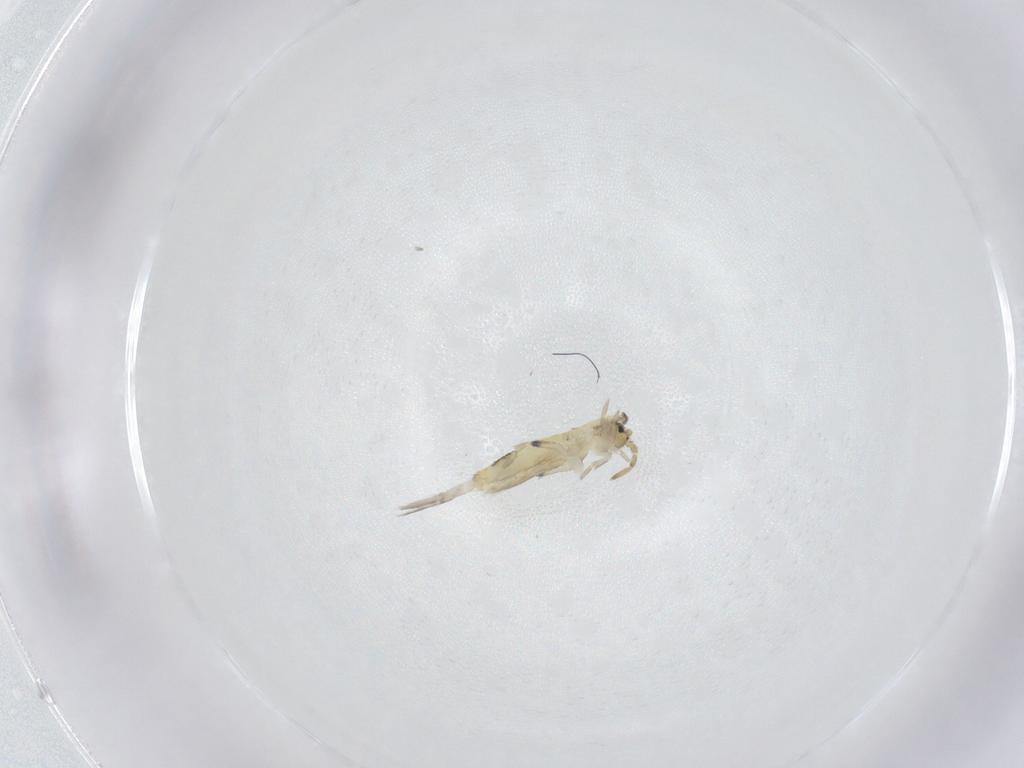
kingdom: Animalia
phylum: Arthropoda
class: Collembola
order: Entomobryomorpha
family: Entomobryidae
